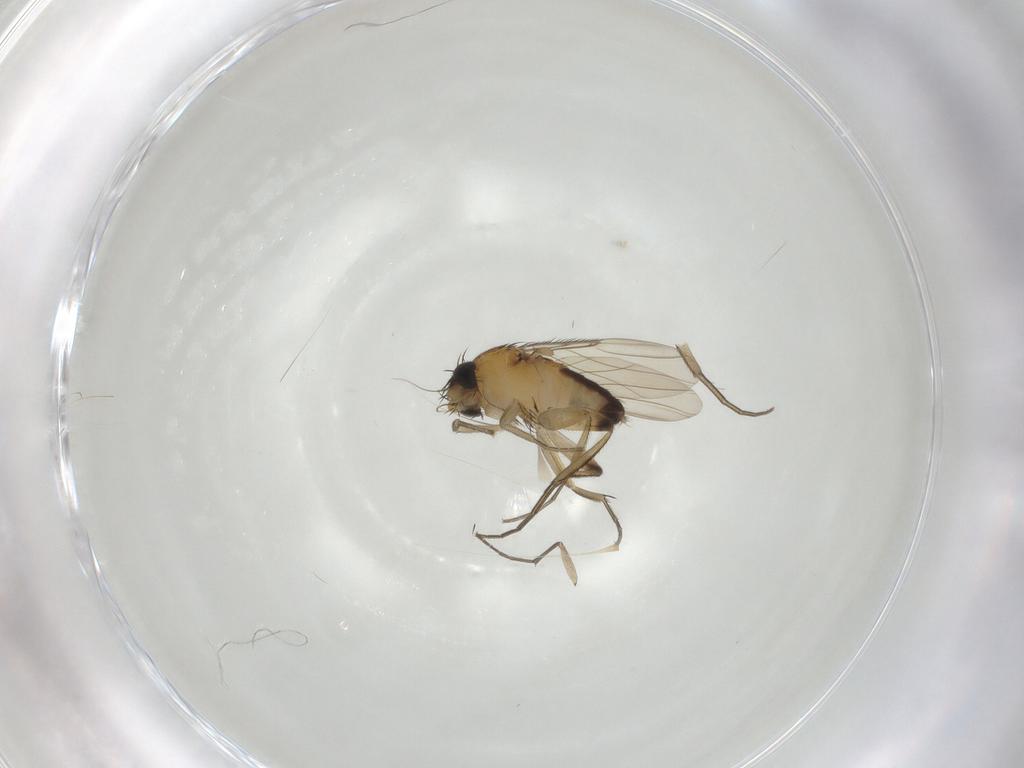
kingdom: Animalia
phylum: Arthropoda
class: Insecta
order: Diptera
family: Phoridae
